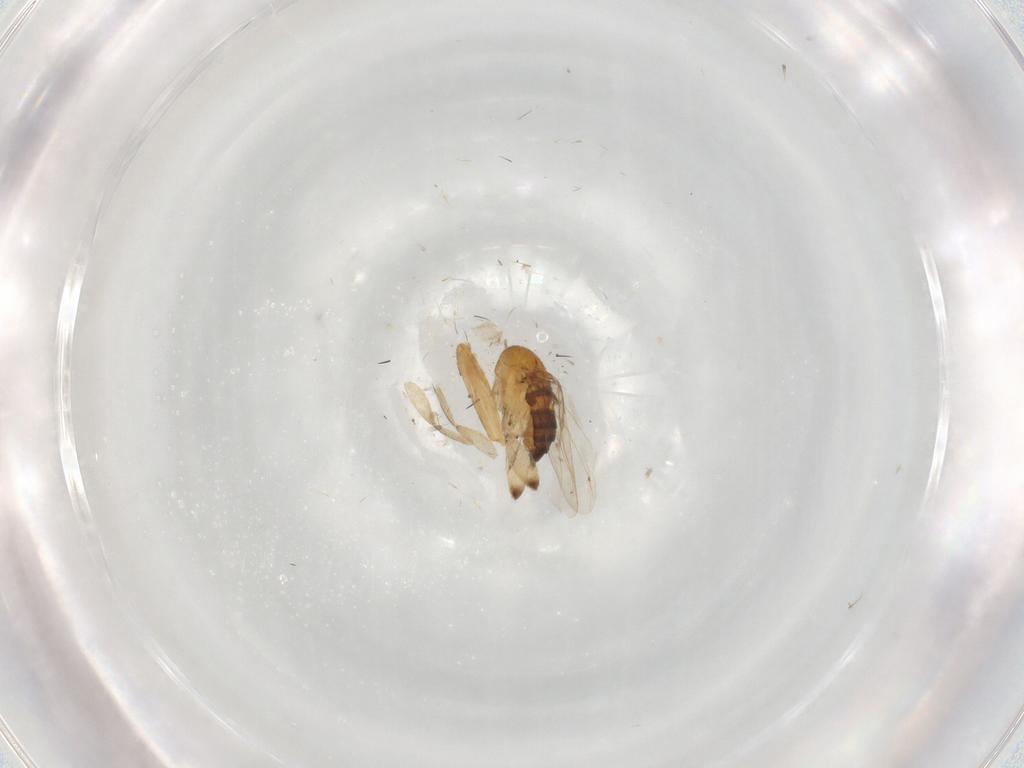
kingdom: Animalia
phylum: Arthropoda
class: Insecta
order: Diptera
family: Muscidae
